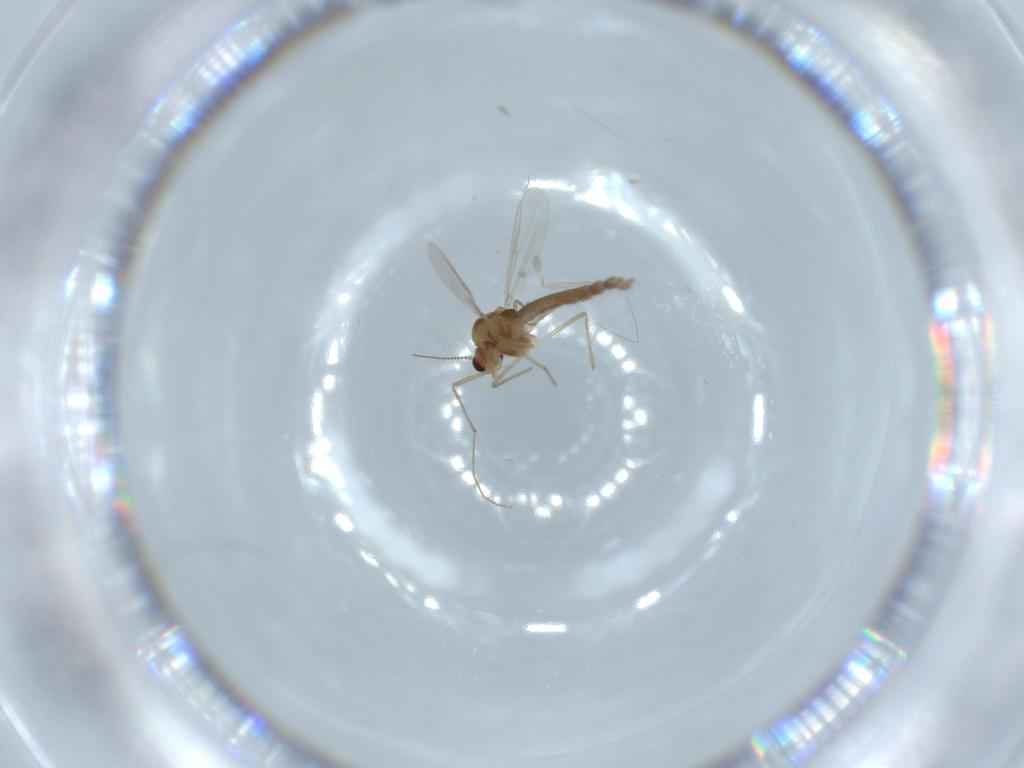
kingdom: Animalia
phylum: Arthropoda
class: Insecta
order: Diptera
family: Chironomidae
